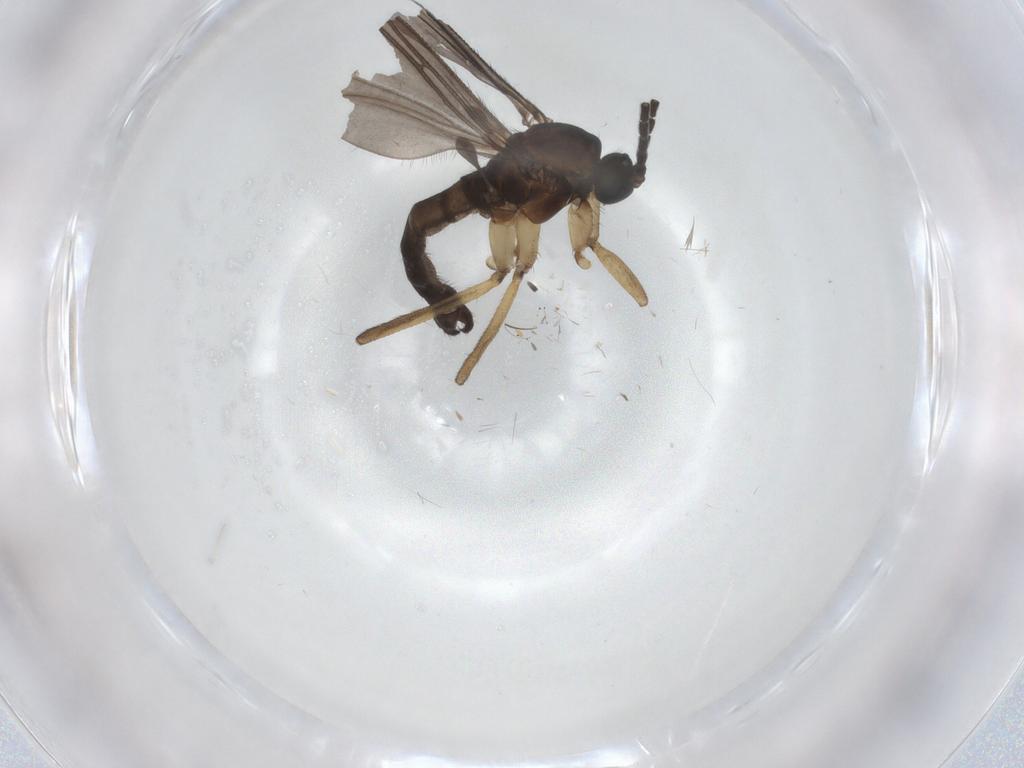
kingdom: Animalia
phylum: Arthropoda
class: Insecta
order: Diptera
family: Sciaridae
